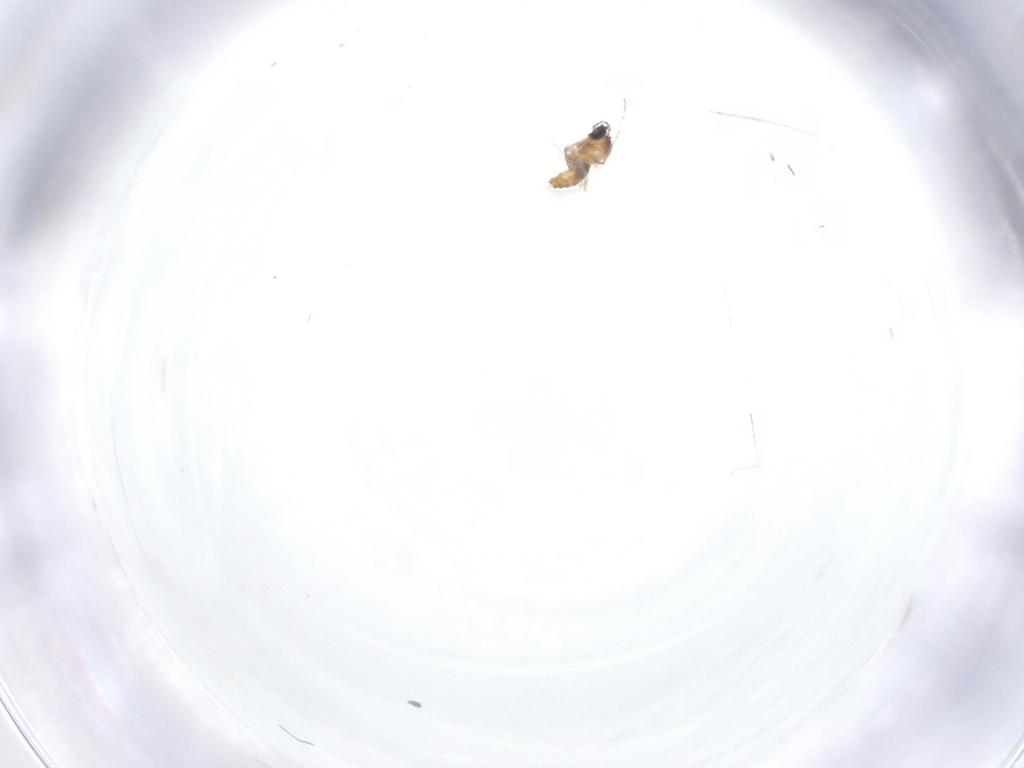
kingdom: Animalia
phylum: Arthropoda
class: Insecta
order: Diptera
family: Cecidomyiidae
